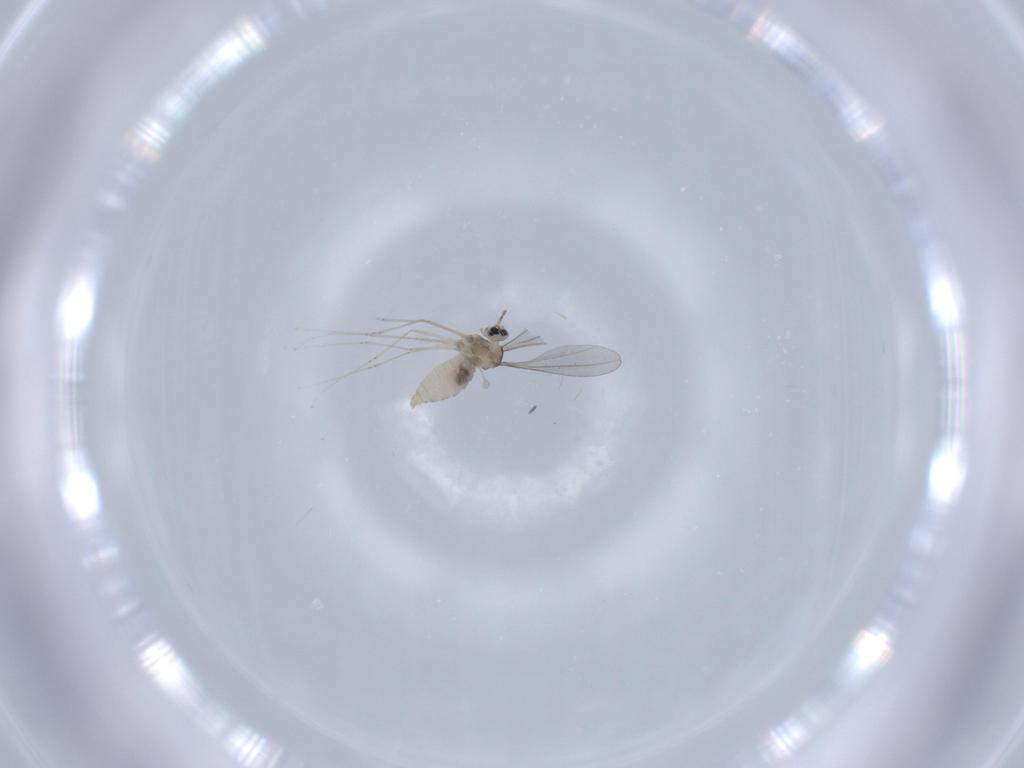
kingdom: Animalia
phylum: Arthropoda
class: Insecta
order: Diptera
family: Cecidomyiidae
